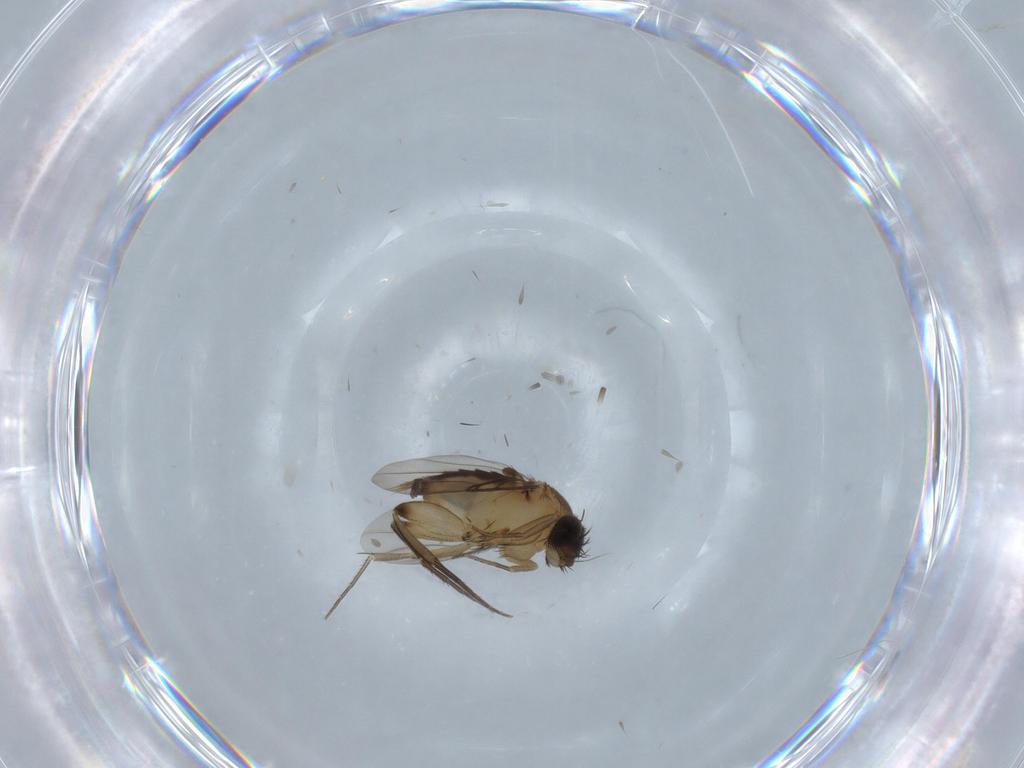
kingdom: Animalia
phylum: Arthropoda
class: Insecta
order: Diptera
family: Phoridae
